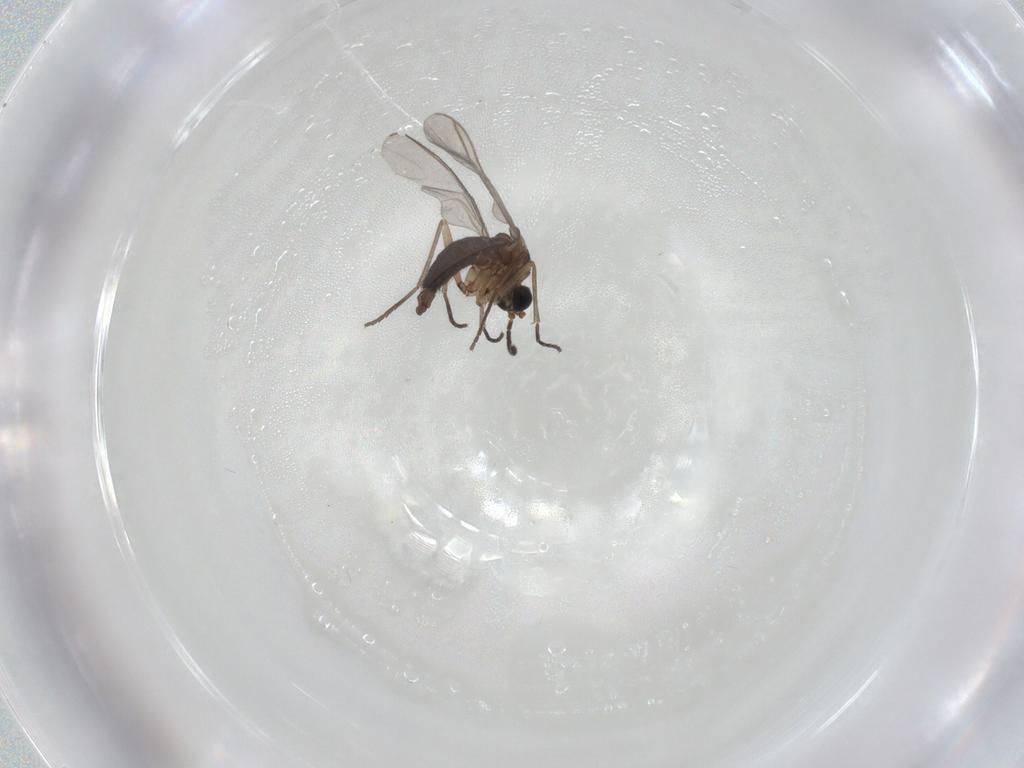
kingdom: Animalia
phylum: Arthropoda
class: Insecta
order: Diptera
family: Sciaridae
